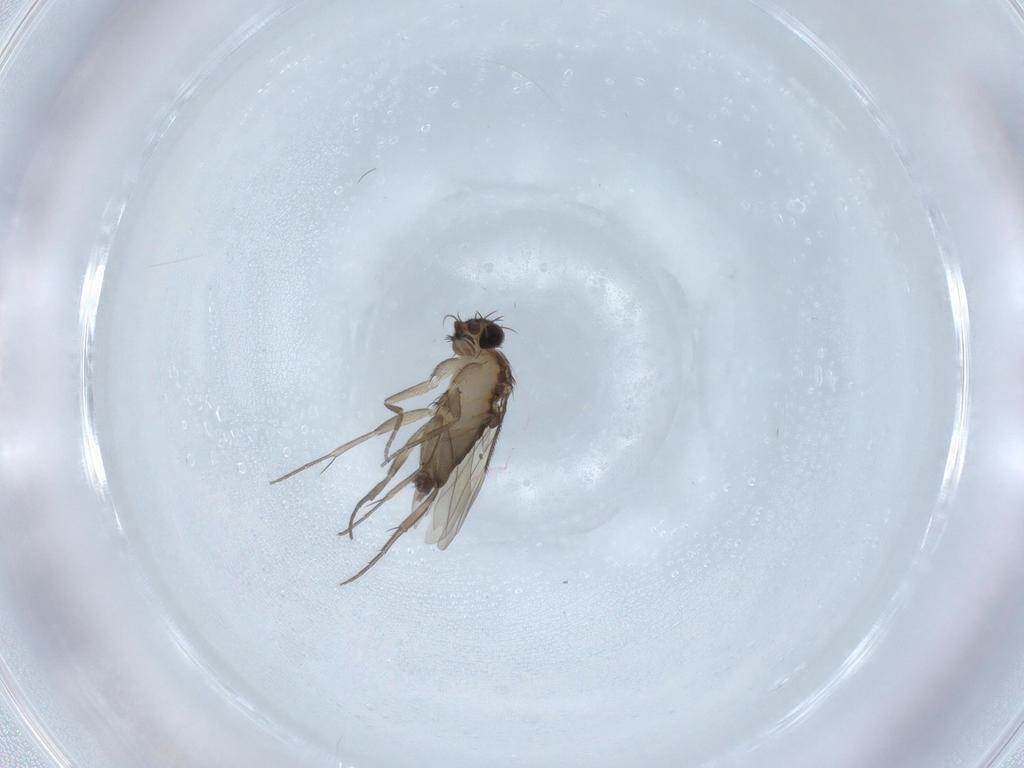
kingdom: Animalia
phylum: Arthropoda
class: Insecta
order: Diptera
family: Phoridae
